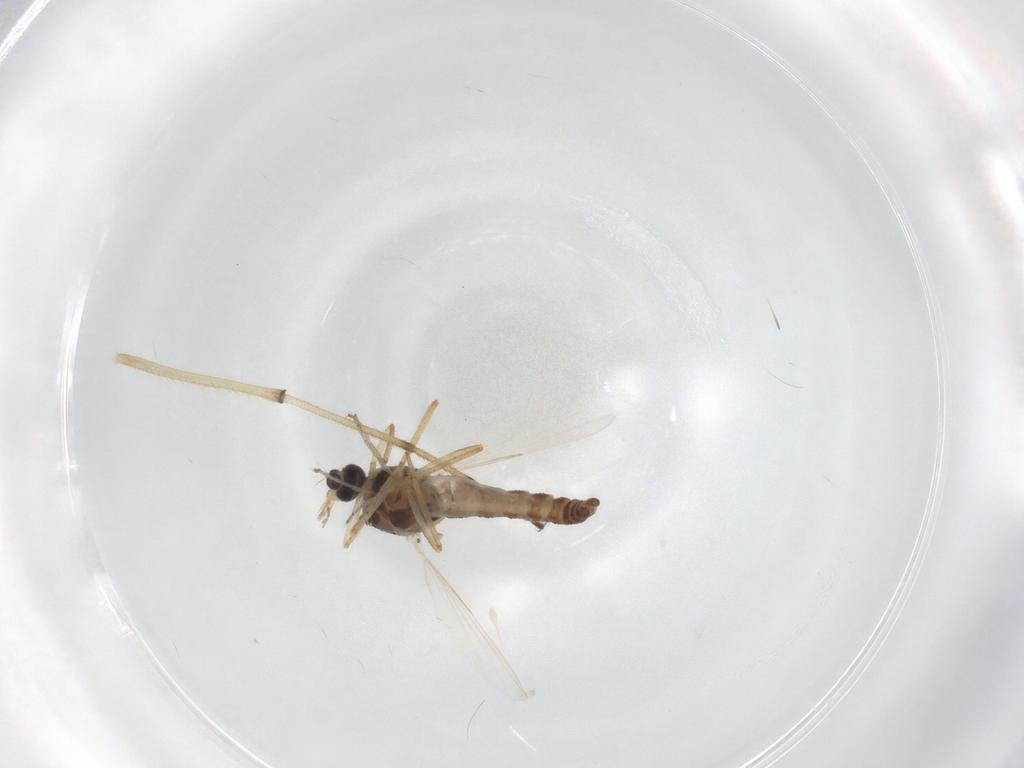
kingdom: Animalia
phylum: Arthropoda
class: Insecta
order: Diptera
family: Ceratopogonidae
